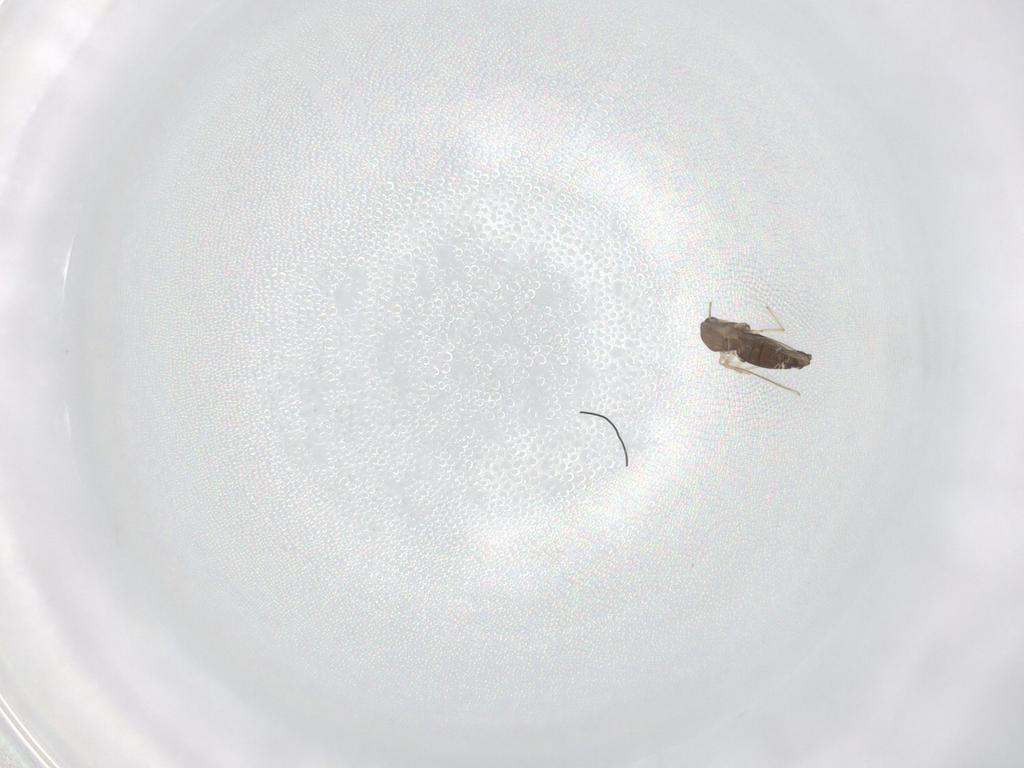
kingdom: Animalia
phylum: Arthropoda
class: Insecta
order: Diptera
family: Chironomidae
